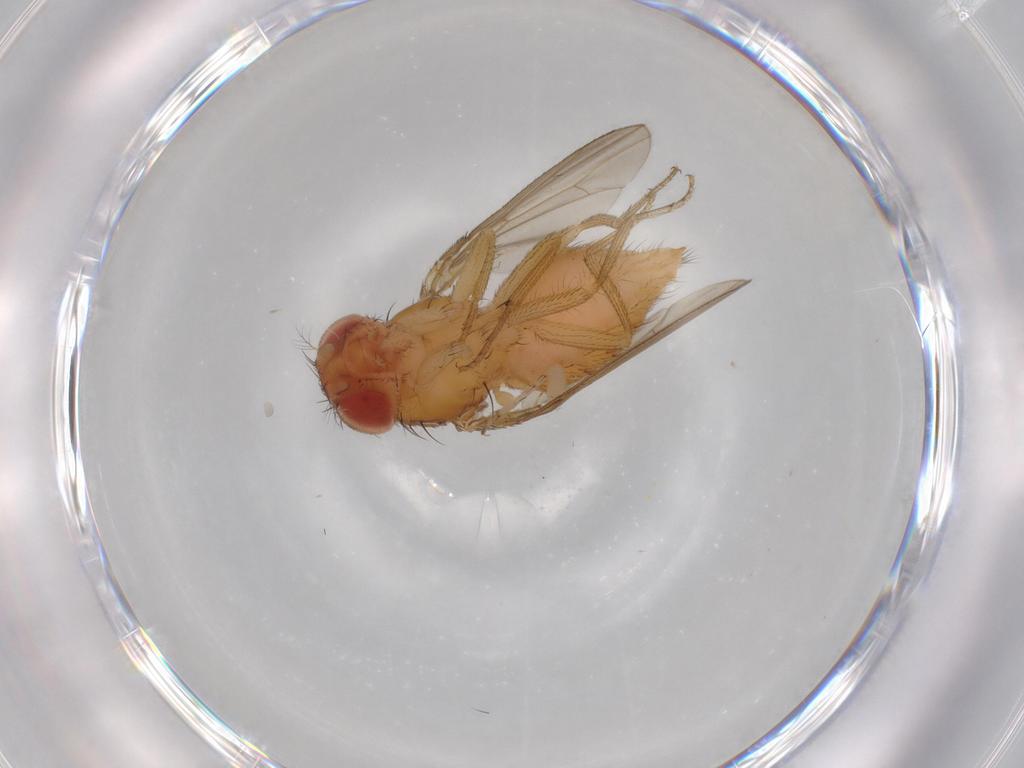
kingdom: Animalia
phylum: Arthropoda
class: Insecta
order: Diptera
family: Drosophilidae
